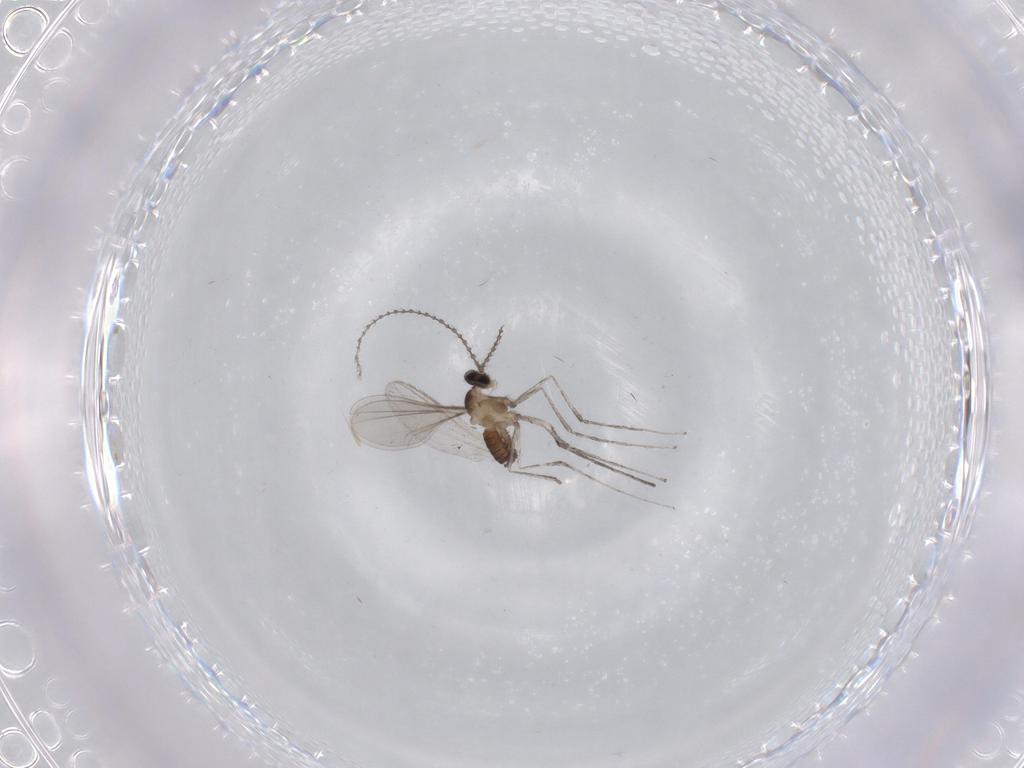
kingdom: Animalia
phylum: Arthropoda
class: Insecta
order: Diptera
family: Cecidomyiidae
